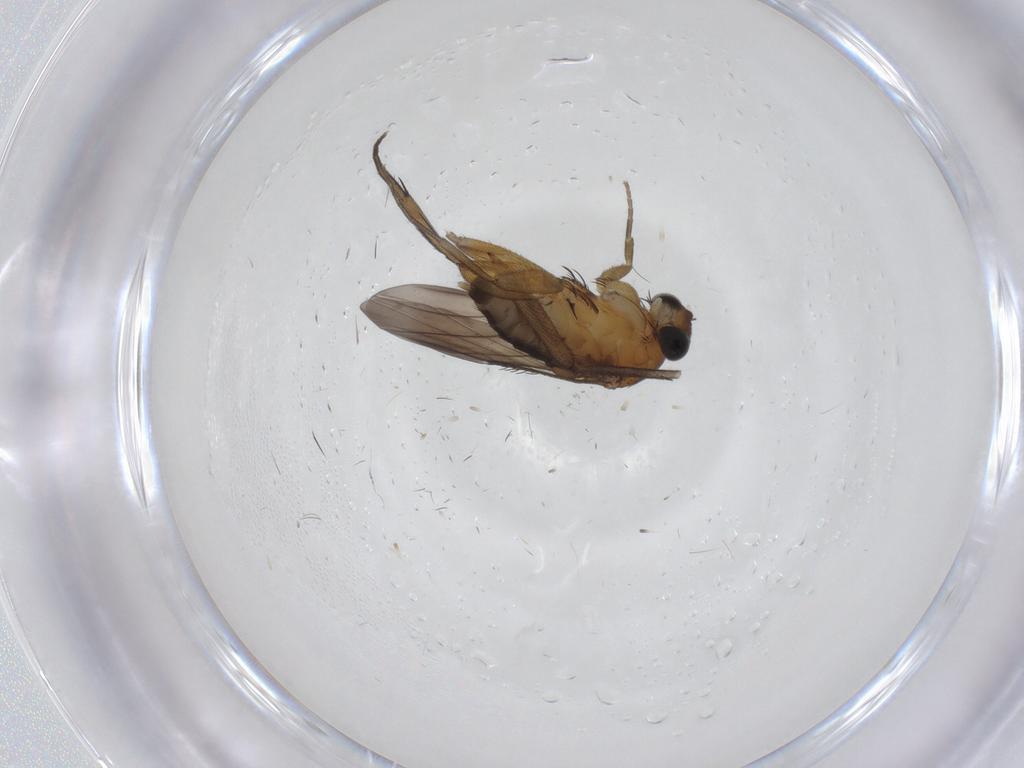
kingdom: Animalia
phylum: Arthropoda
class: Insecta
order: Diptera
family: Phoridae
